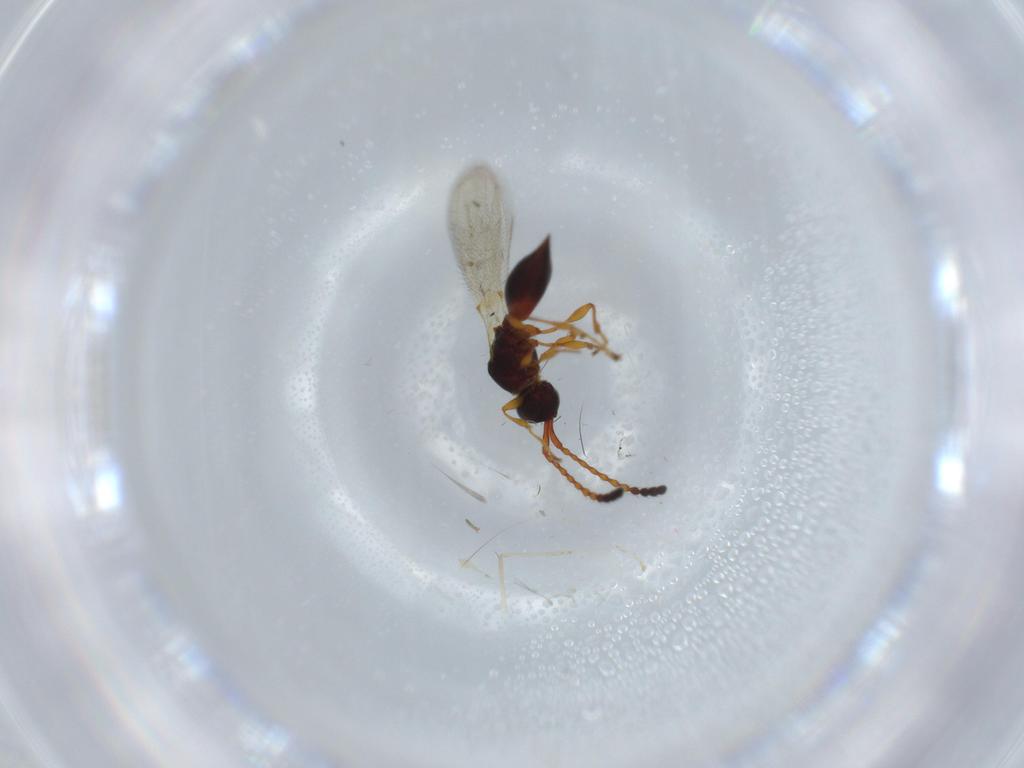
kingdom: Animalia
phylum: Arthropoda
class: Insecta
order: Hymenoptera
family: Diapriidae
